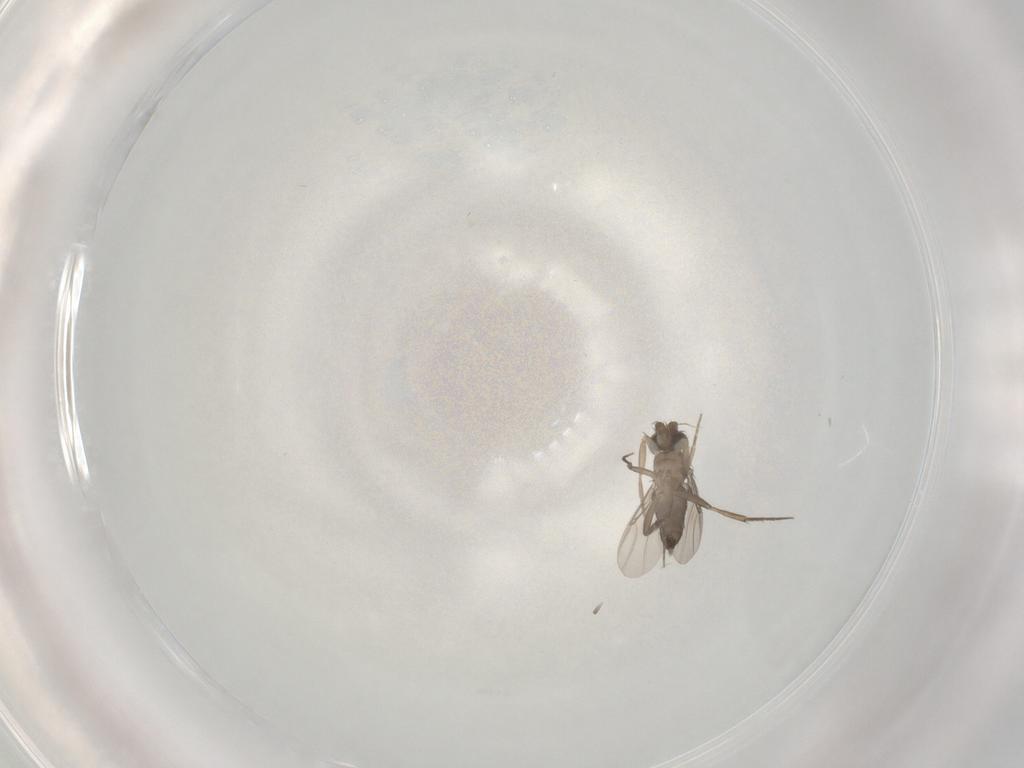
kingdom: Animalia
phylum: Arthropoda
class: Insecta
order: Diptera
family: Phoridae
